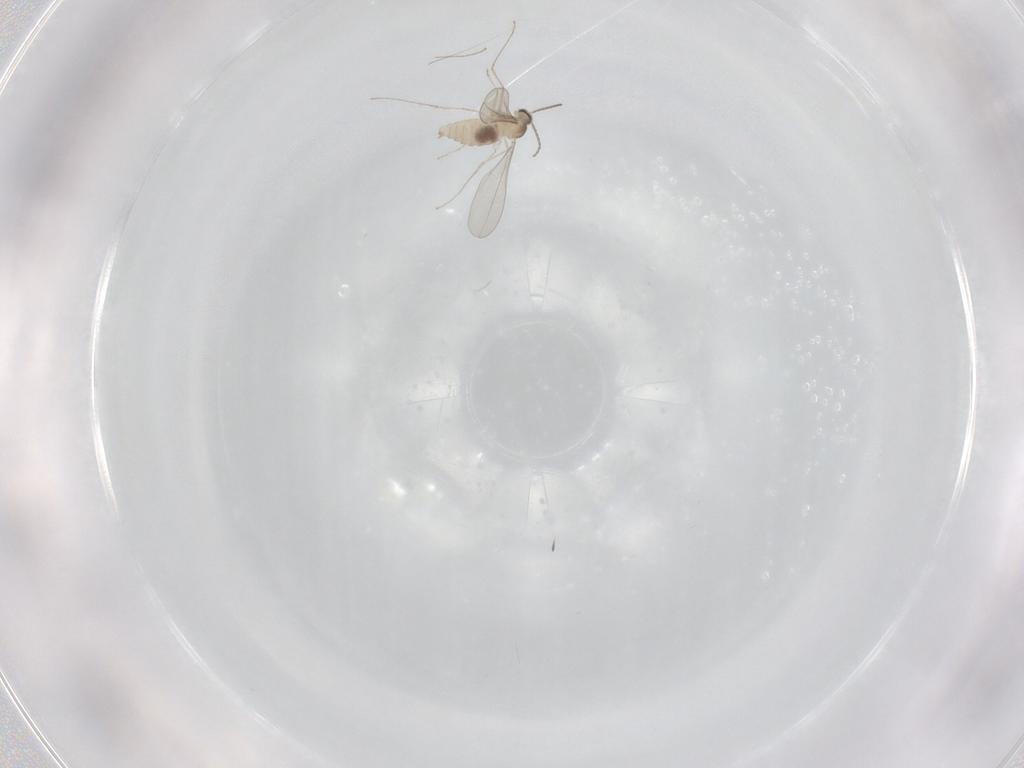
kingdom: Animalia
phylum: Arthropoda
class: Insecta
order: Diptera
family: Cecidomyiidae
